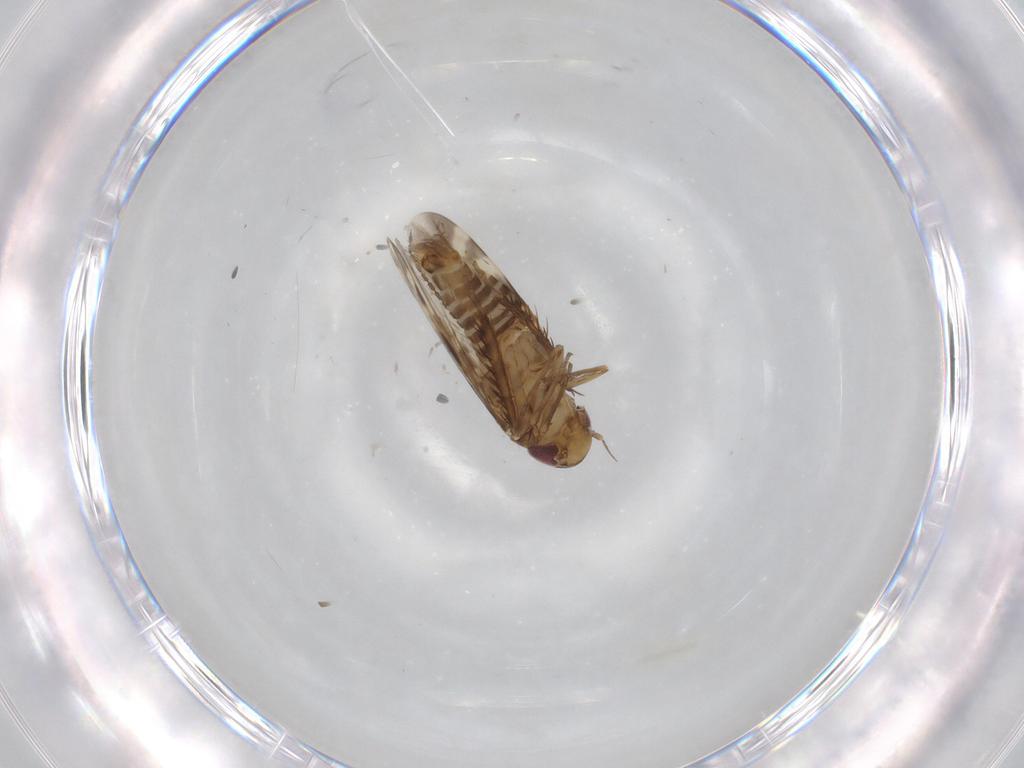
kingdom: Animalia
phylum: Arthropoda
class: Insecta
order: Hemiptera
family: Cicadellidae
